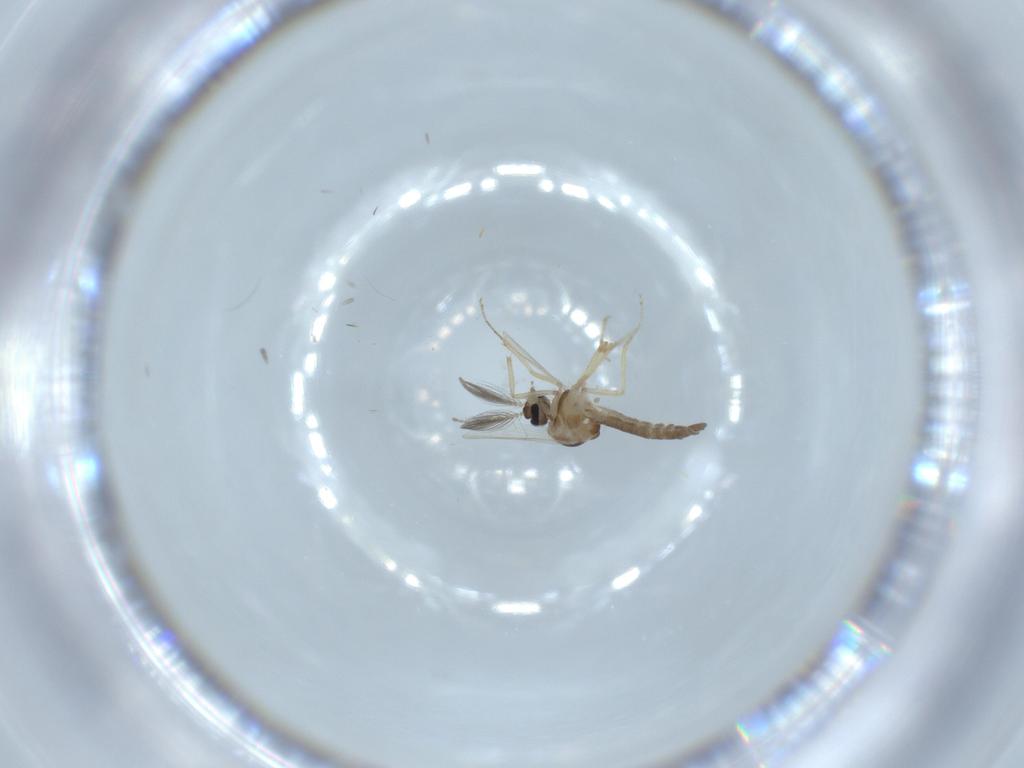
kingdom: Animalia
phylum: Arthropoda
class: Insecta
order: Diptera
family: Ceratopogonidae
